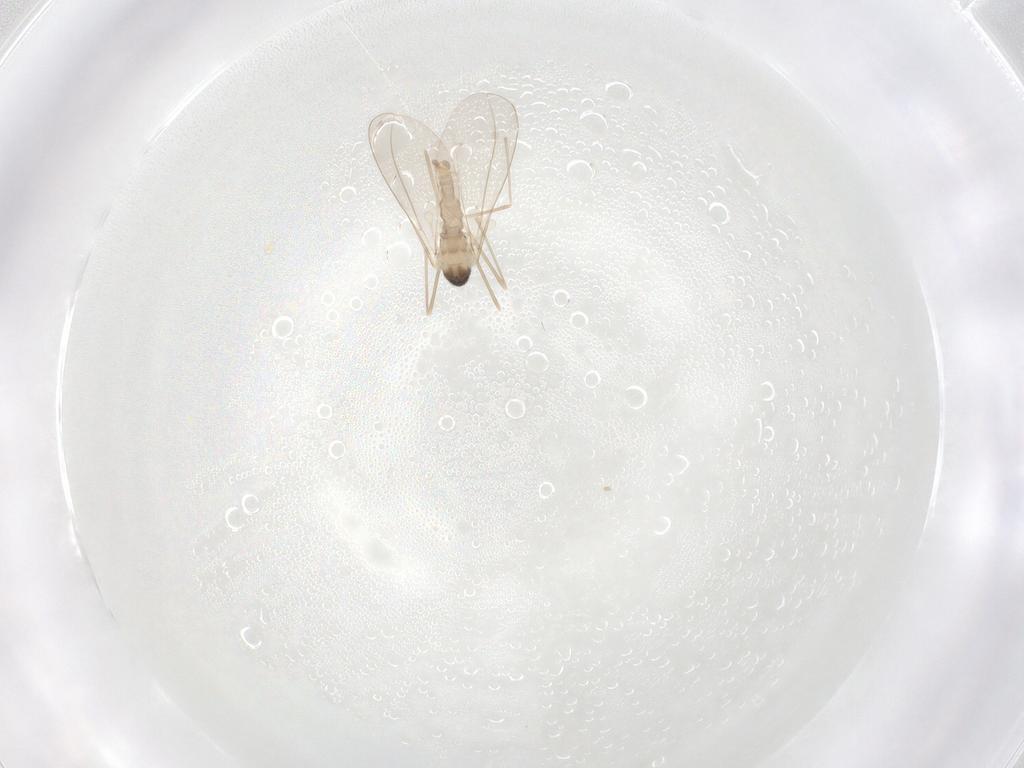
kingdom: Animalia
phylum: Arthropoda
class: Insecta
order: Diptera
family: Cecidomyiidae
